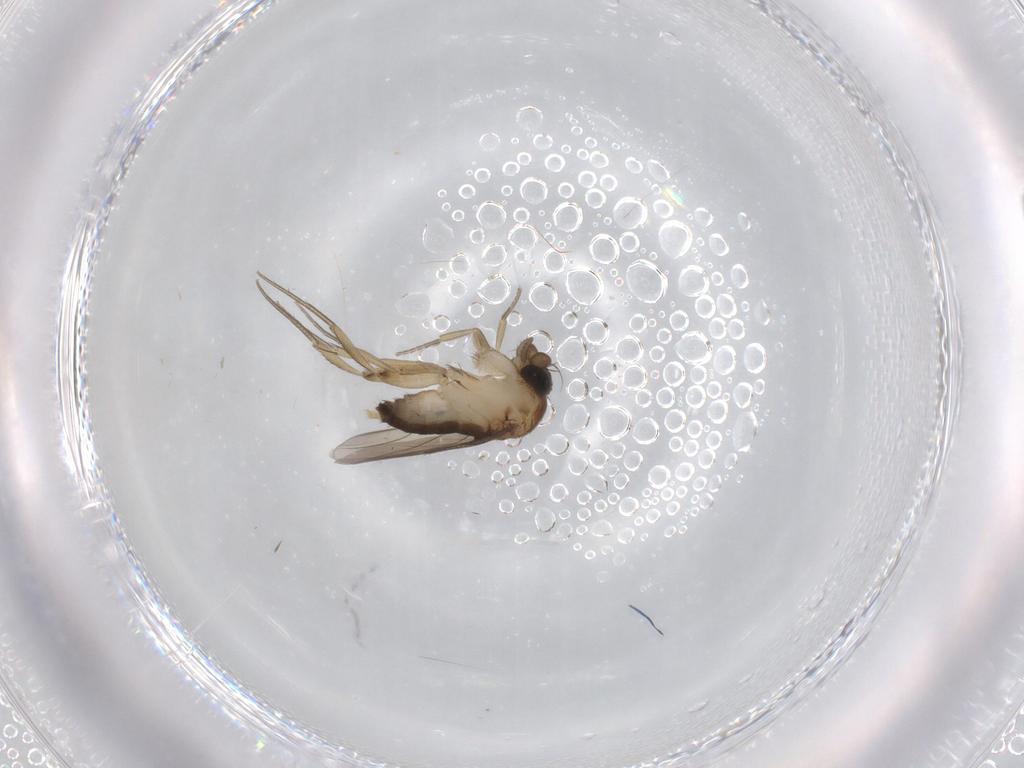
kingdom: Animalia
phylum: Arthropoda
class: Insecta
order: Diptera
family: Phoridae
